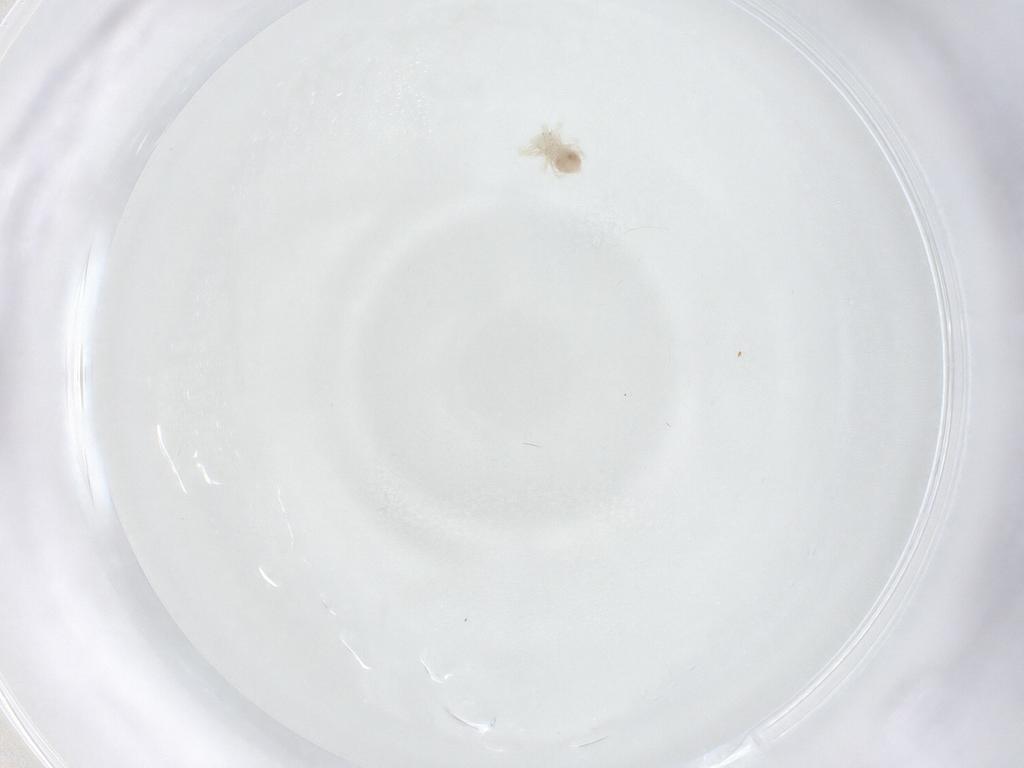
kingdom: Animalia
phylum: Arthropoda
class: Arachnida
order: Trombidiformes
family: Eupodidae
